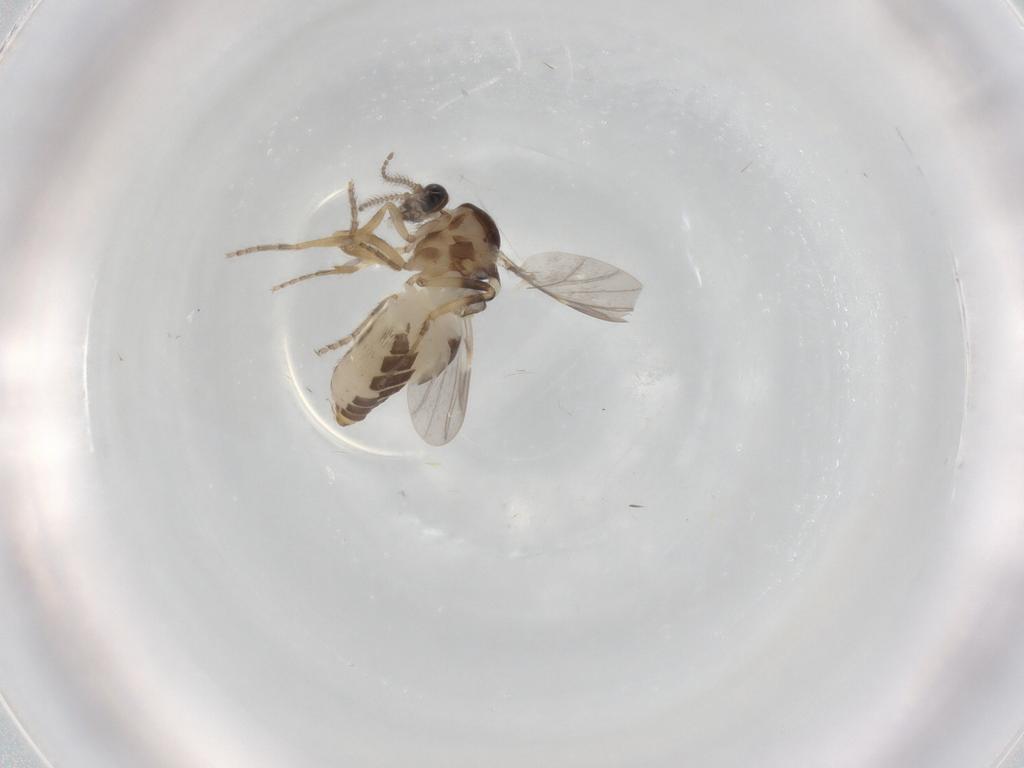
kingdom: Animalia
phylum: Arthropoda
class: Insecta
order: Diptera
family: Ceratopogonidae
